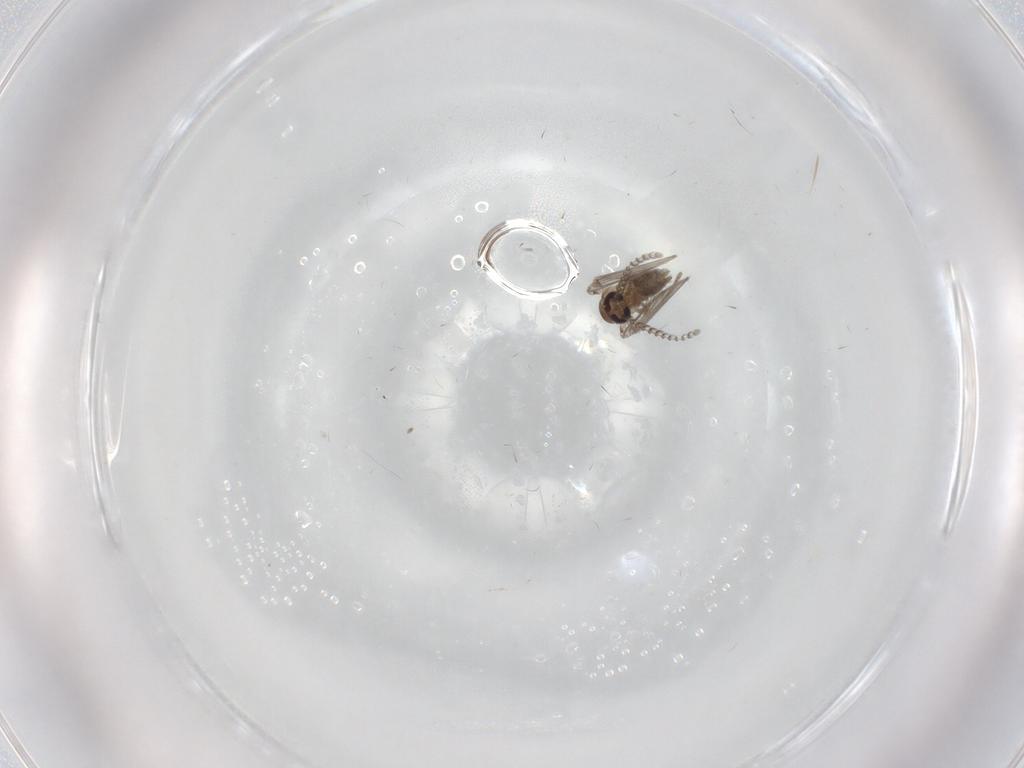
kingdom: Animalia
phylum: Arthropoda
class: Insecta
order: Diptera
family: Psychodidae
